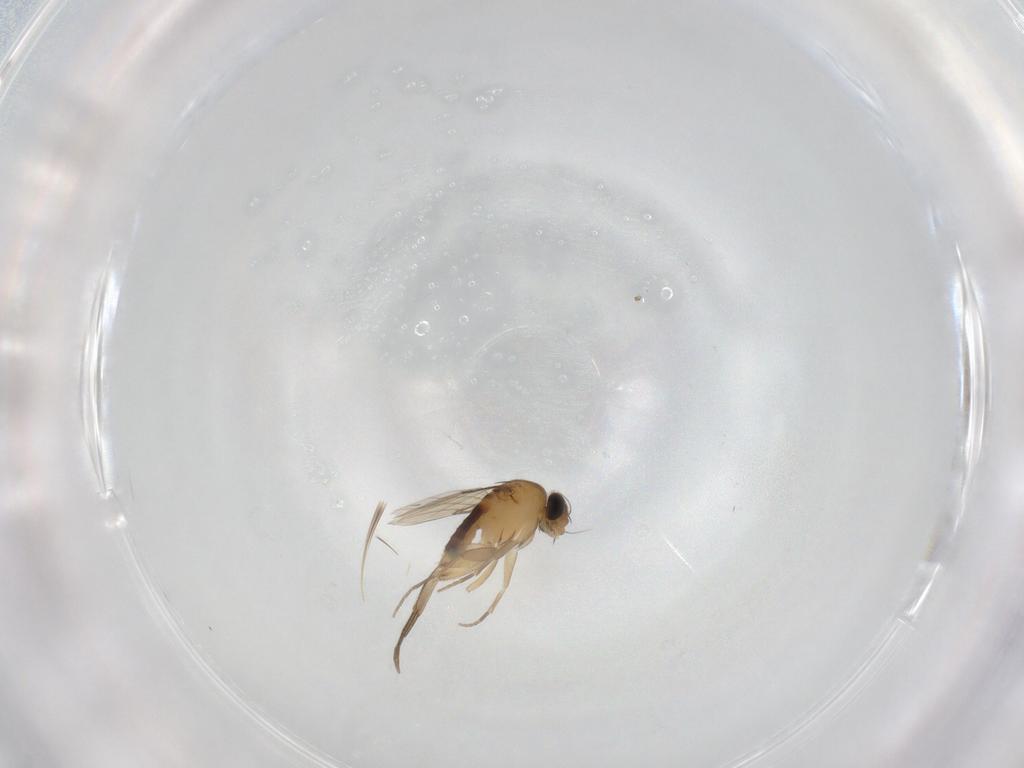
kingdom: Animalia
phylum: Arthropoda
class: Insecta
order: Diptera
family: Phoridae
